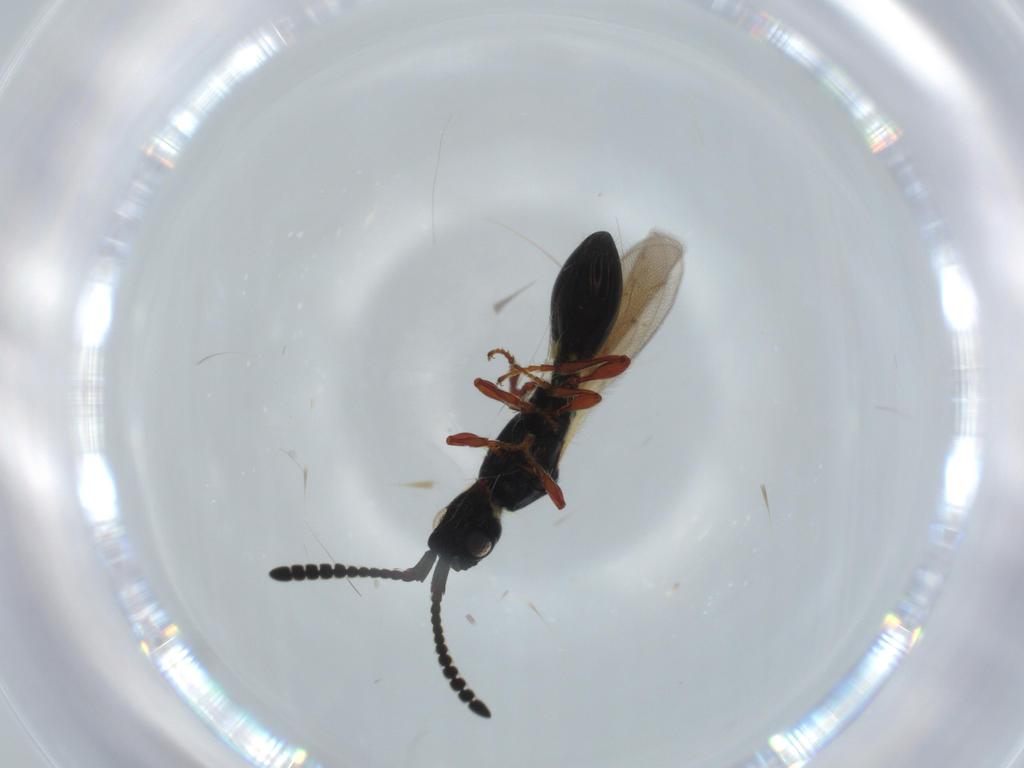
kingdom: Animalia
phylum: Arthropoda
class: Insecta
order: Hymenoptera
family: Diapriidae
